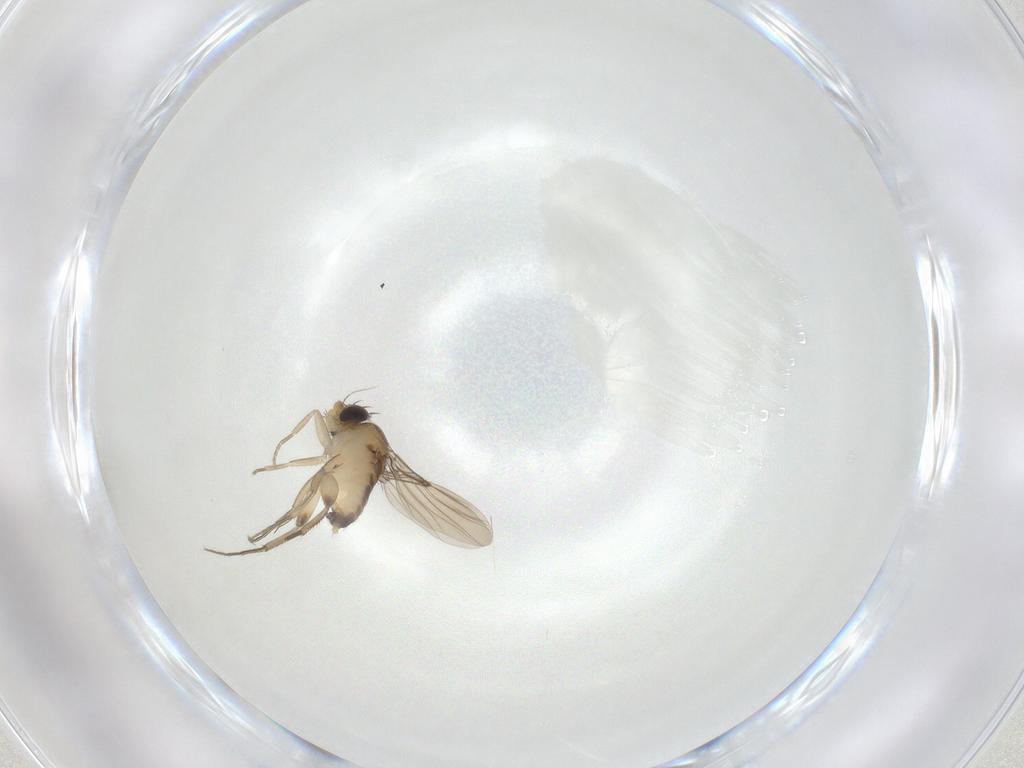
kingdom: Animalia
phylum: Arthropoda
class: Insecta
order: Diptera
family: Phoridae
